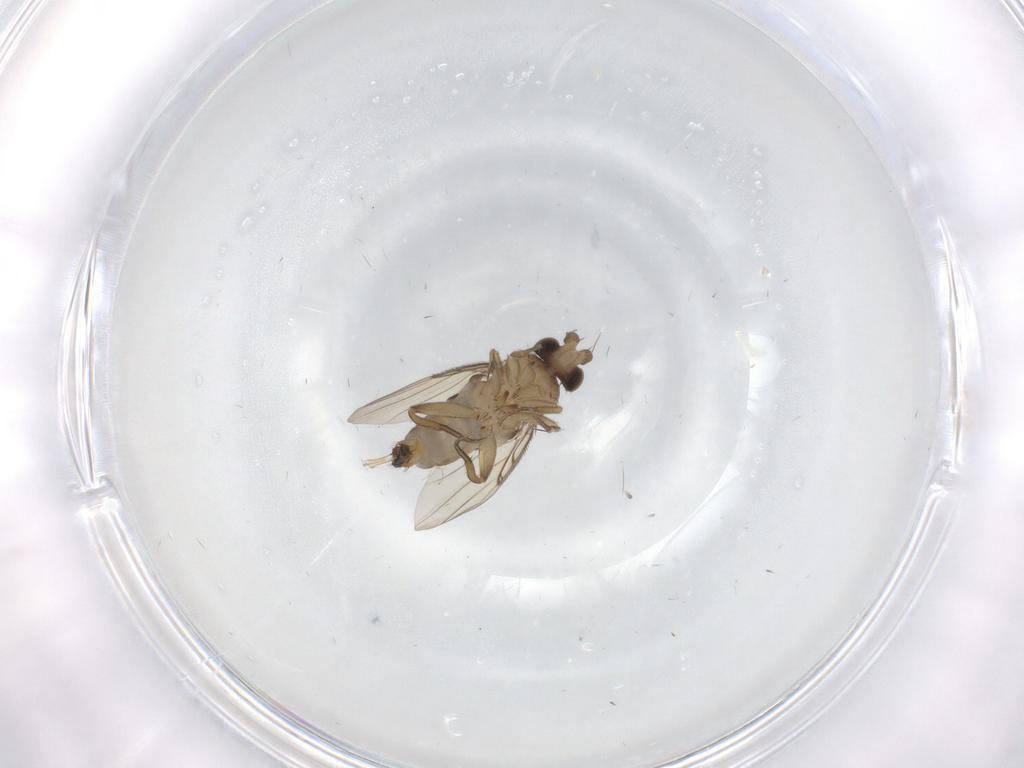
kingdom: Animalia
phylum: Arthropoda
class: Insecta
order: Diptera
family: Phoridae
